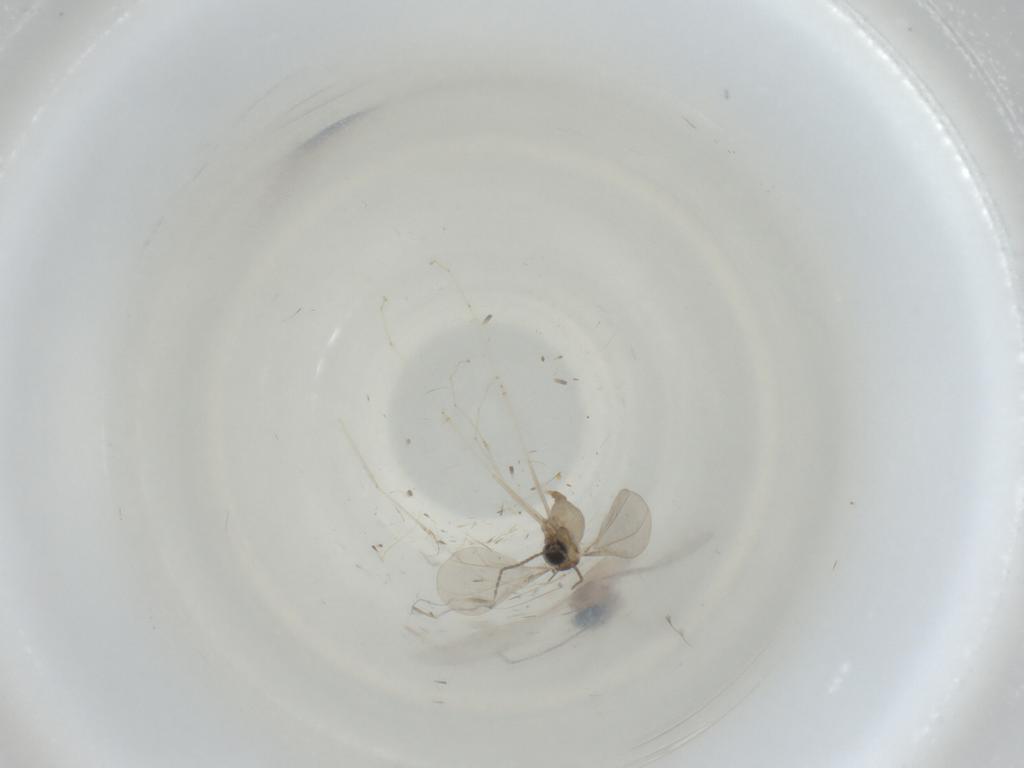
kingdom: Animalia
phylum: Arthropoda
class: Insecta
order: Diptera
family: Cecidomyiidae
